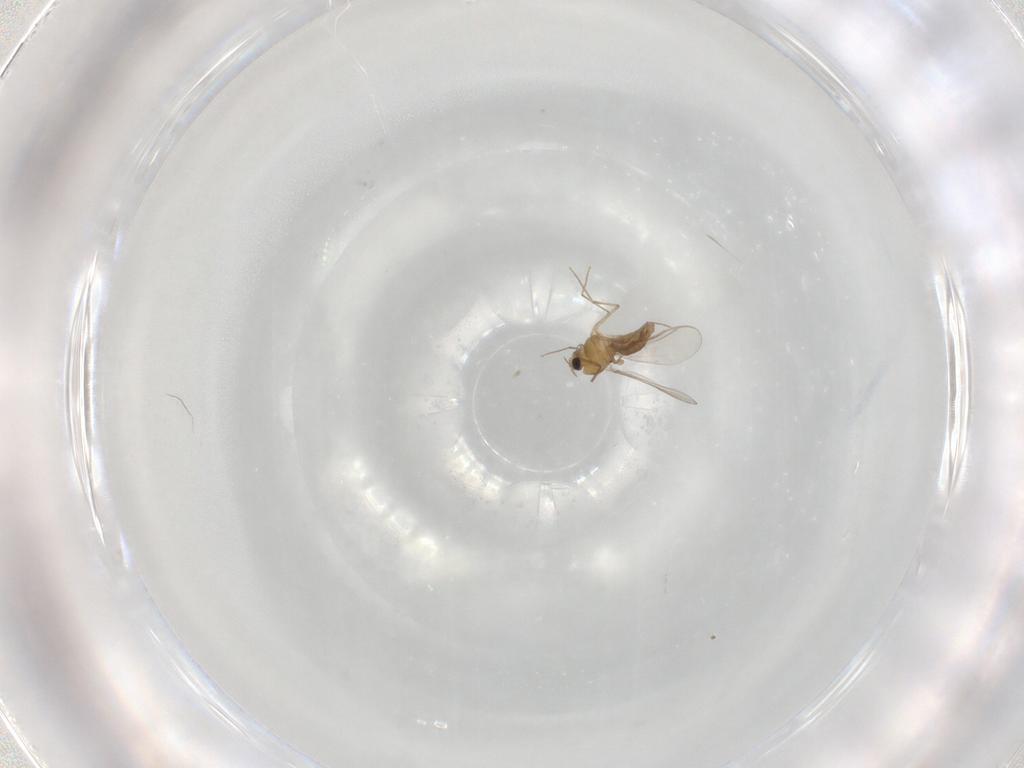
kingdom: Animalia
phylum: Arthropoda
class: Insecta
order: Diptera
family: Chironomidae
